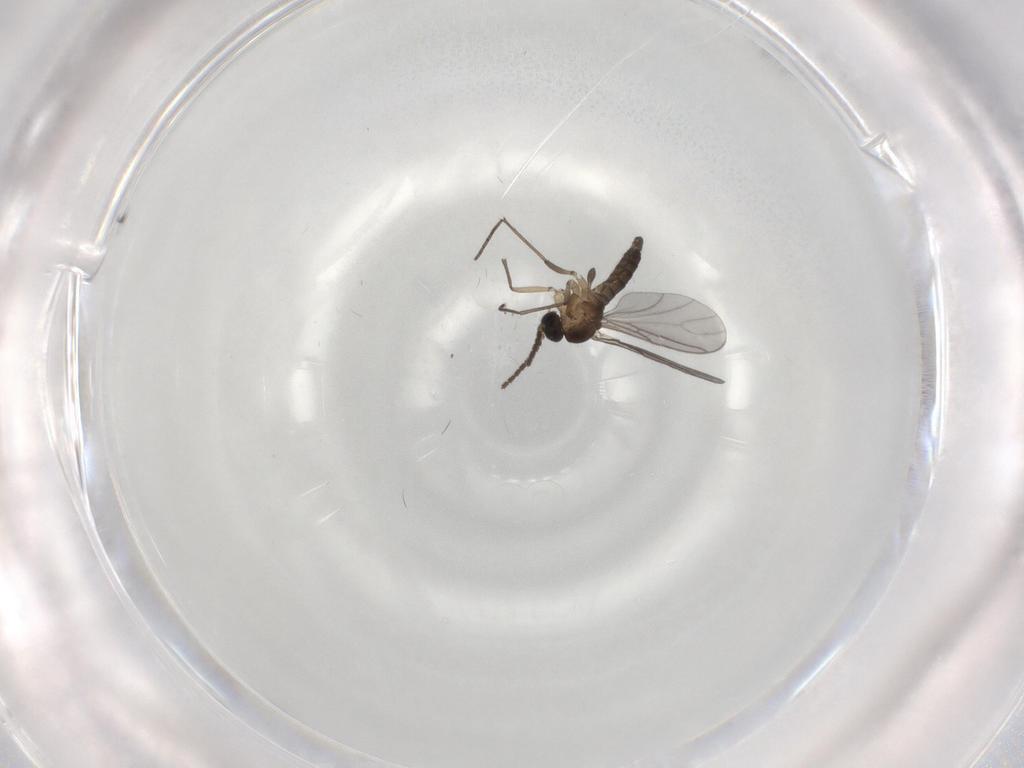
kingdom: Animalia
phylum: Arthropoda
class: Insecta
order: Diptera
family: Sciaridae
